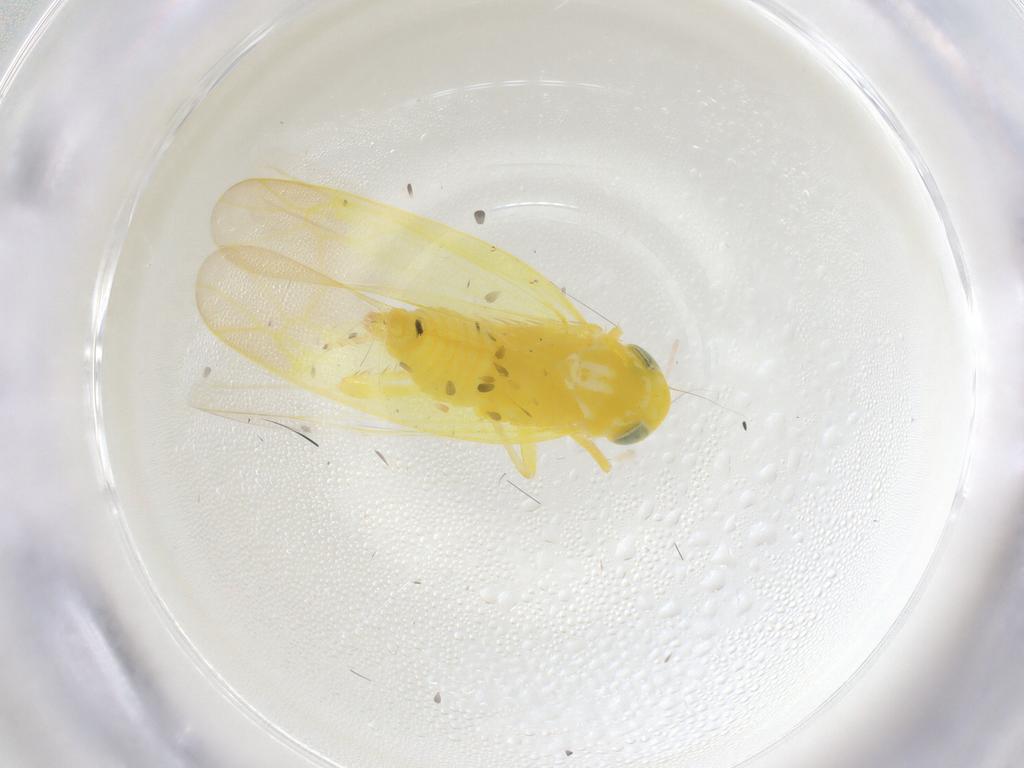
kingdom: Animalia
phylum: Arthropoda
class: Insecta
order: Hemiptera
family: Cicadellidae
